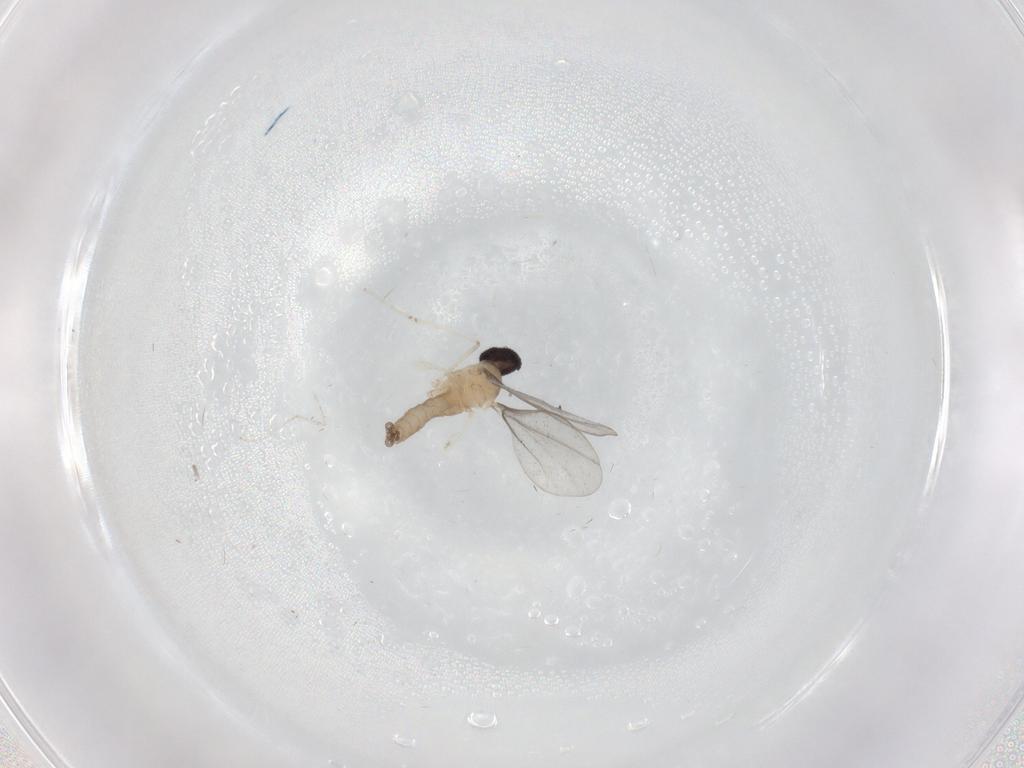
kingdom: Animalia
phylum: Arthropoda
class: Insecta
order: Diptera
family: Cecidomyiidae
